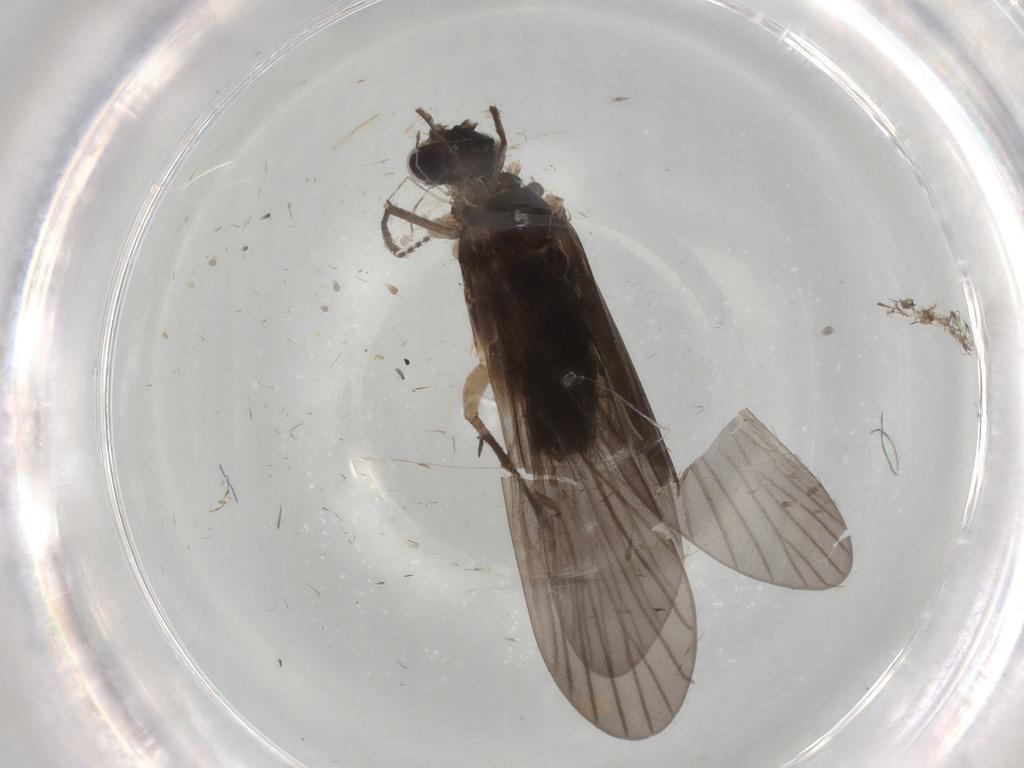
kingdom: Animalia
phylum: Arthropoda
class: Insecta
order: Trichoptera
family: Philopotamidae
